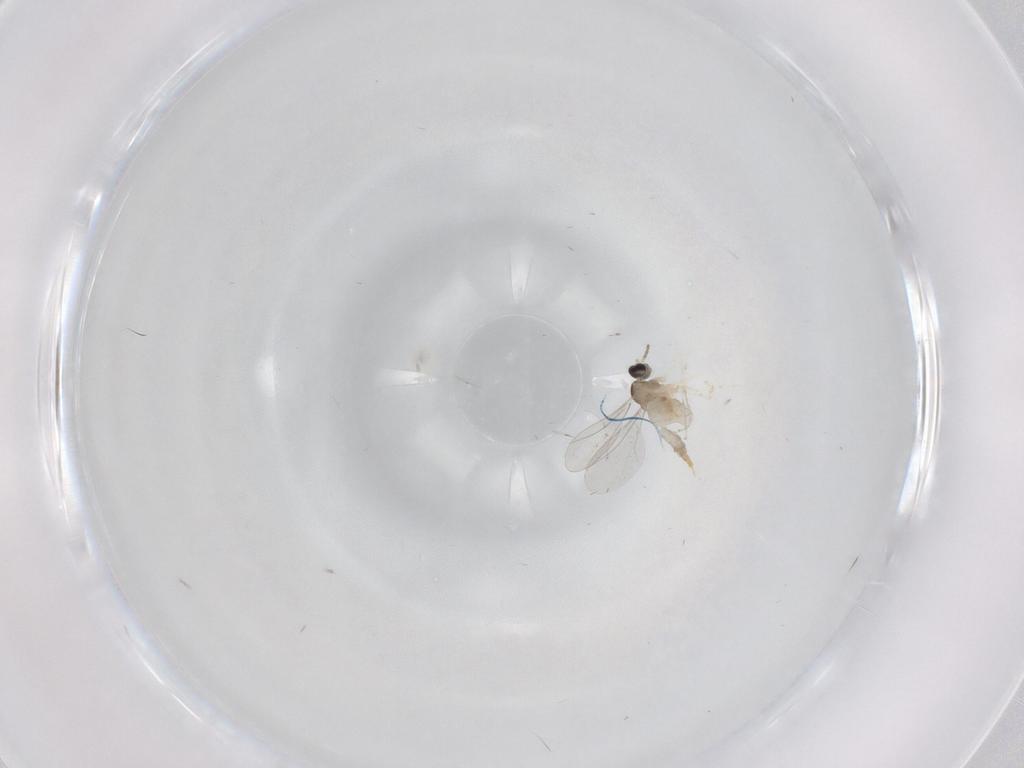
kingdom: Animalia
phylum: Arthropoda
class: Insecta
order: Diptera
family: Cecidomyiidae
